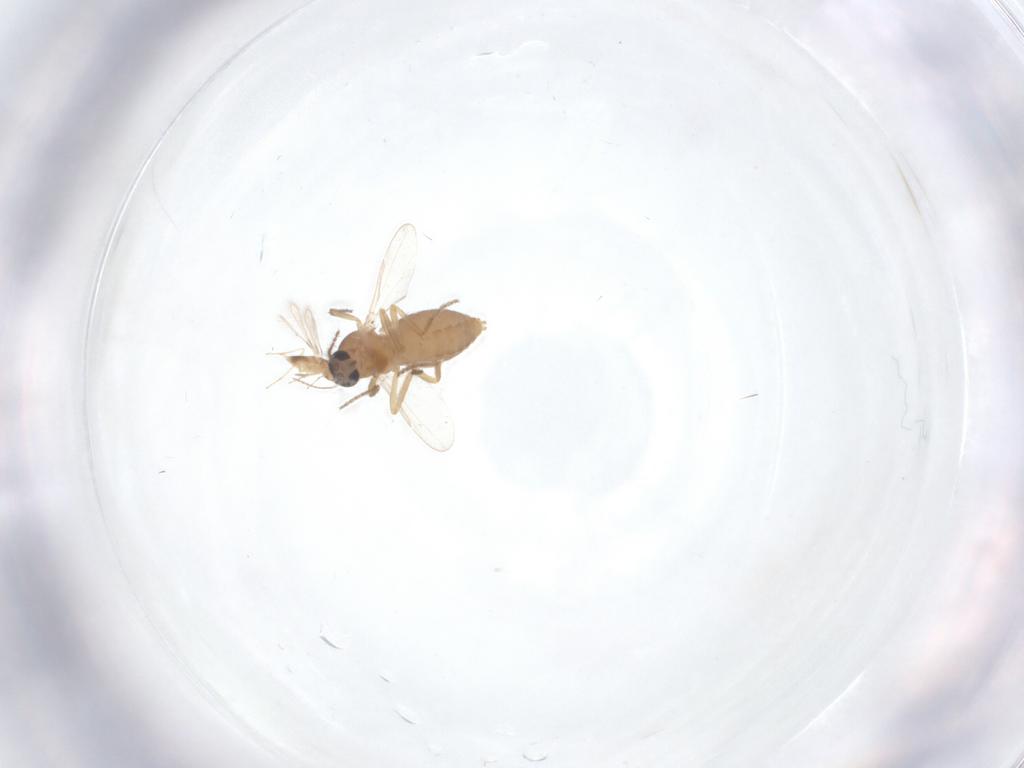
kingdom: Animalia
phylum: Arthropoda
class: Insecta
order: Diptera
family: Ceratopogonidae
